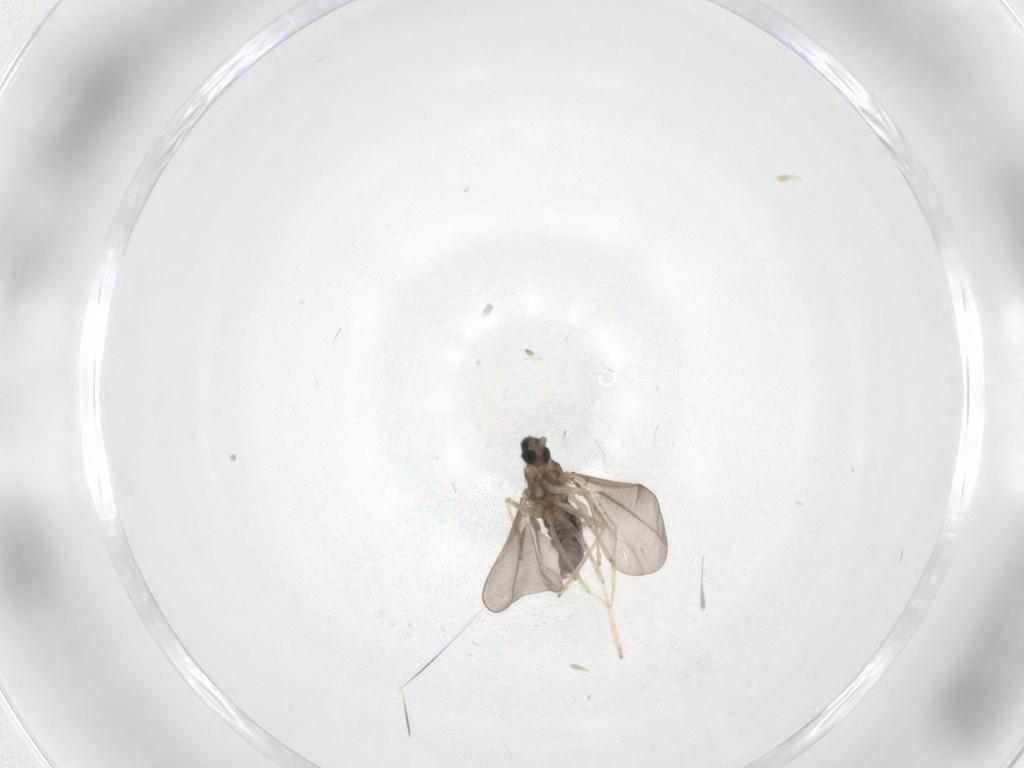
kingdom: Animalia
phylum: Arthropoda
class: Insecta
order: Diptera
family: Cecidomyiidae
